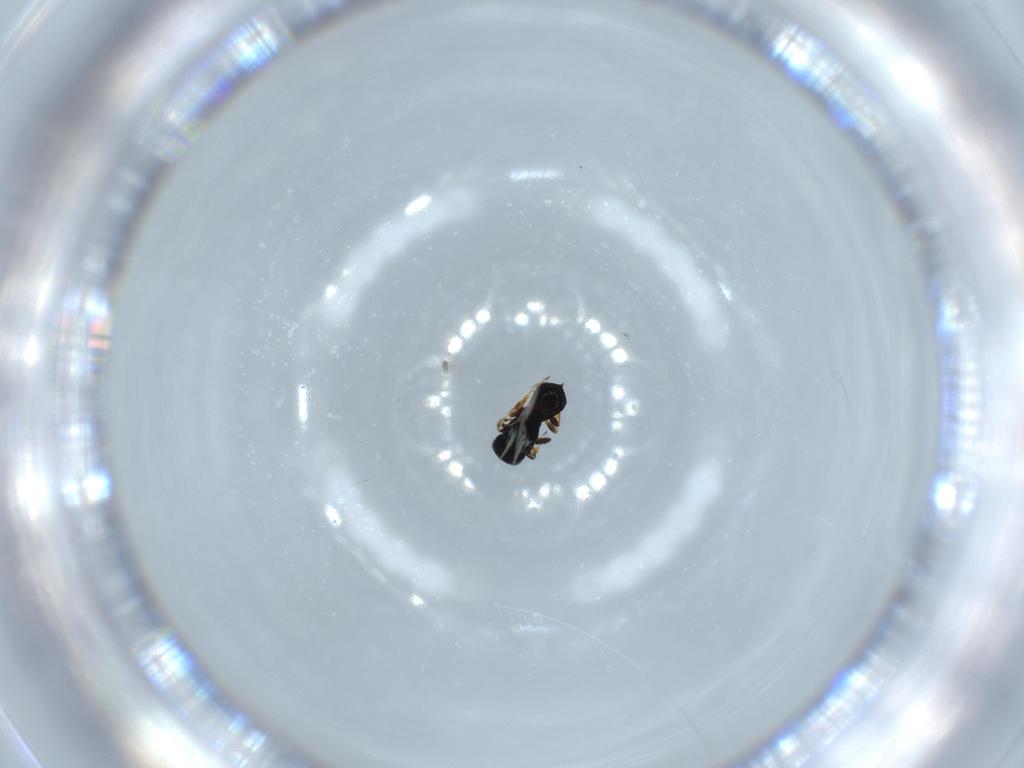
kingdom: Animalia
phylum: Arthropoda
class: Insecta
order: Hymenoptera
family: Scelionidae
